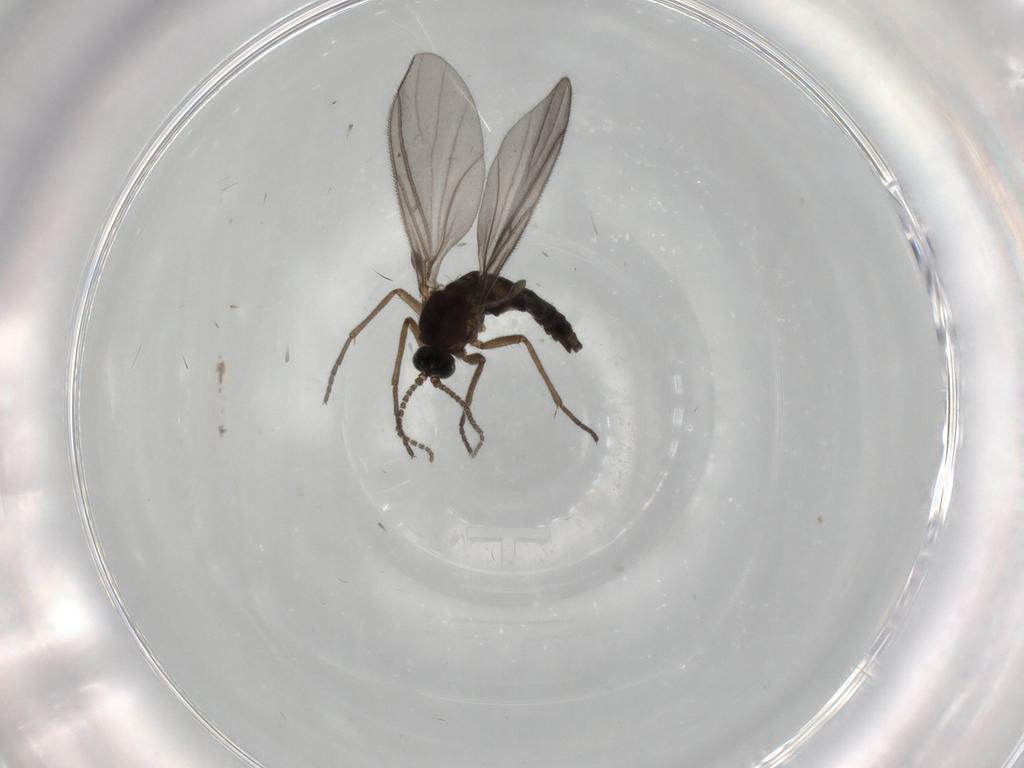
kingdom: Animalia
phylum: Arthropoda
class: Insecta
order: Diptera
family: Sciaridae
